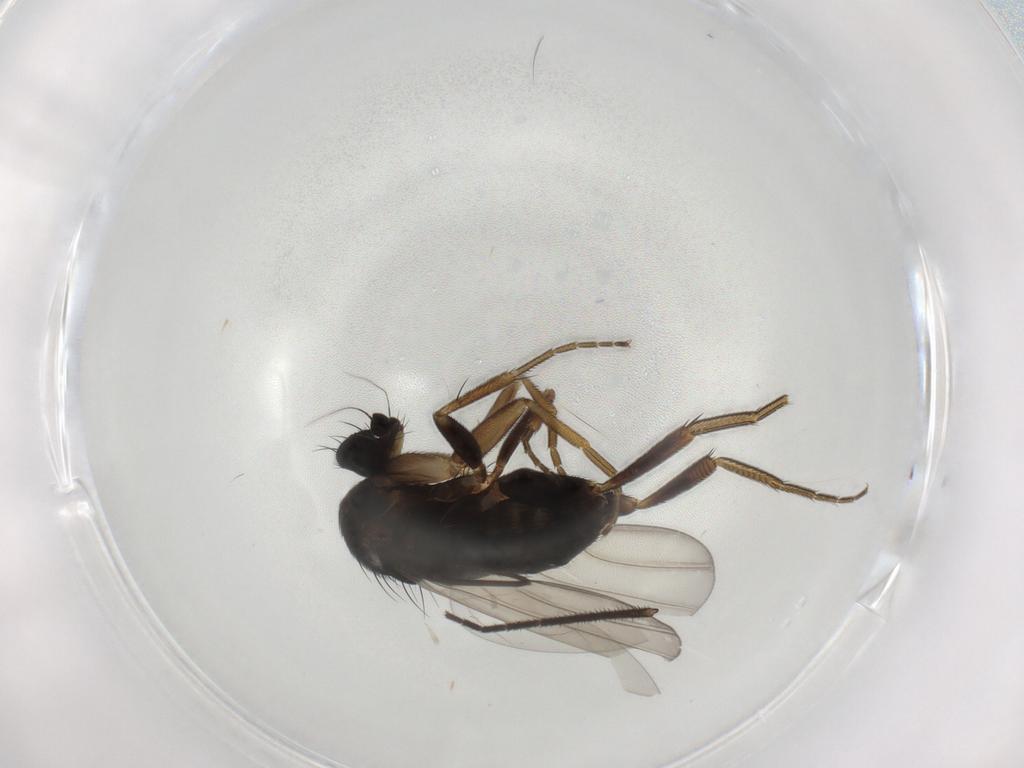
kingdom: Animalia
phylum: Arthropoda
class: Insecta
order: Diptera
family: Phoridae
